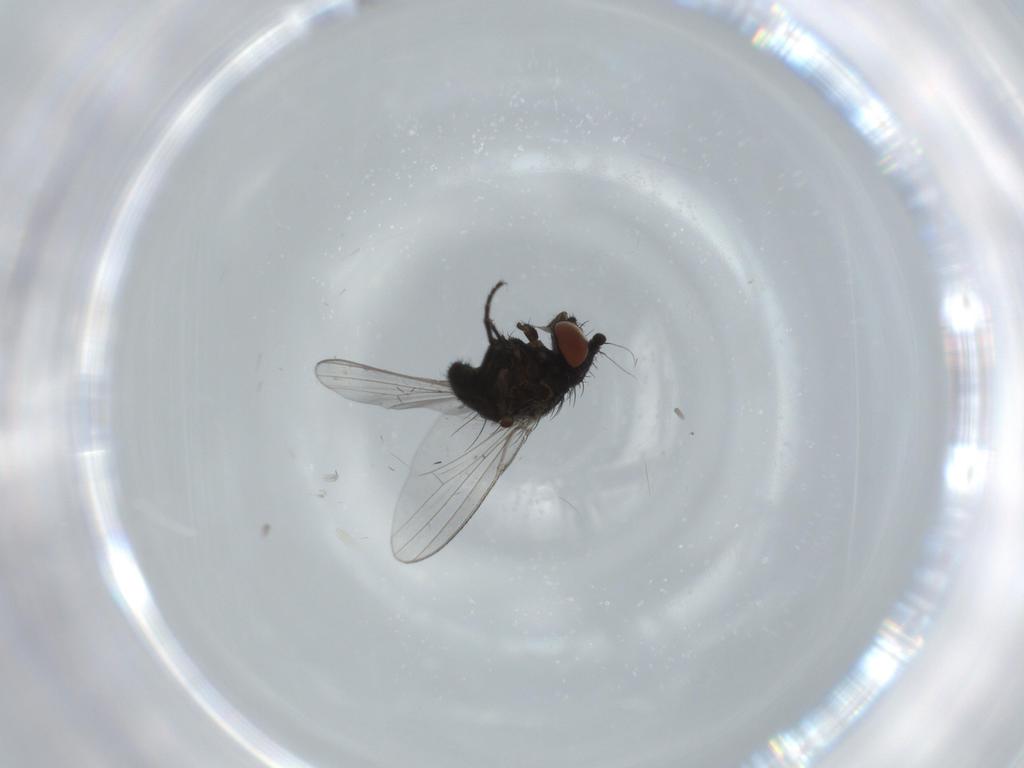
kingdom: Animalia
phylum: Arthropoda
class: Insecta
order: Diptera
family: Milichiidae
